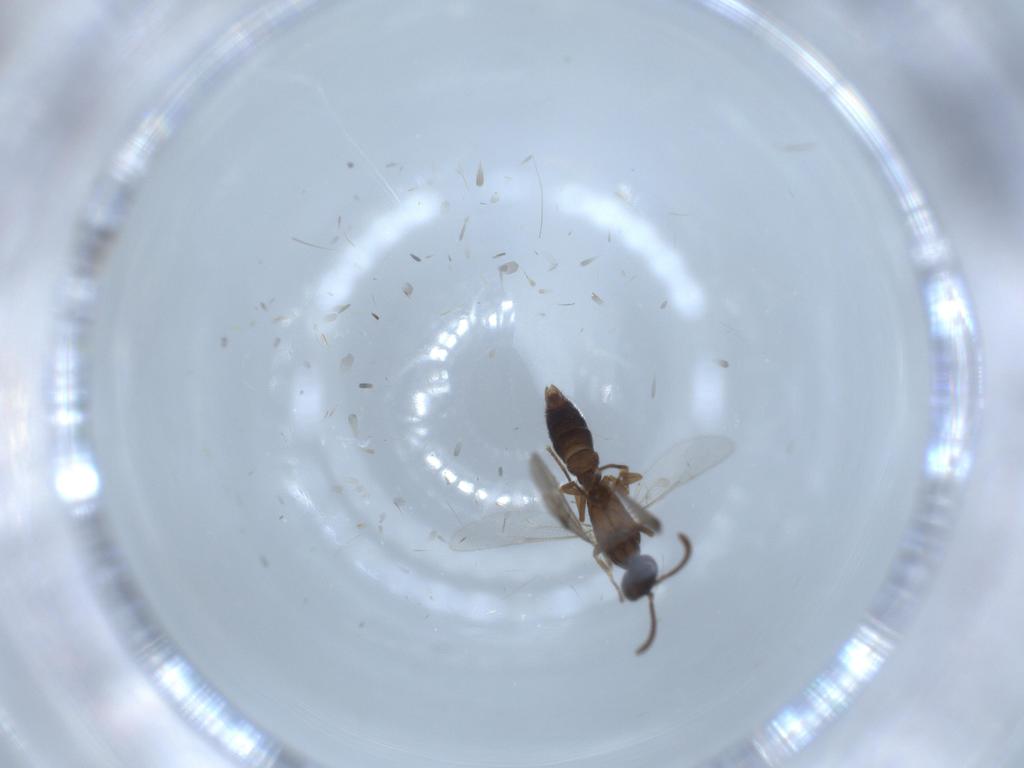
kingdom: Animalia
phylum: Arthropoda
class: Insecta
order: Hymenoptera
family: Formicidae
